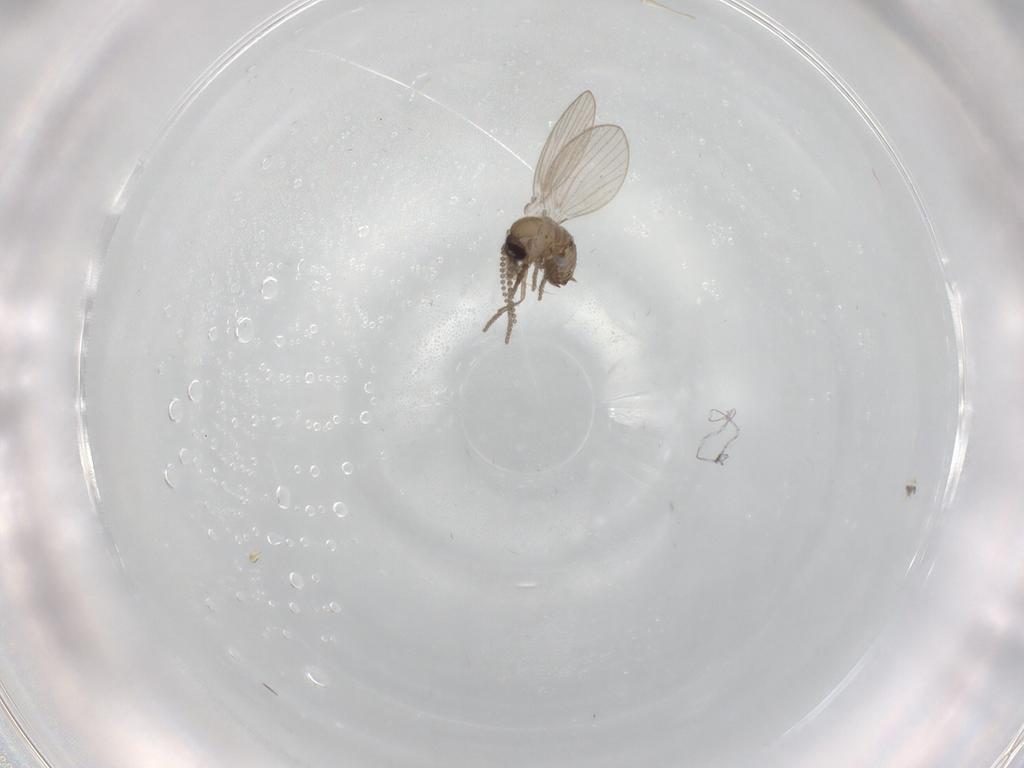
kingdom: Animalia
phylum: Arthropoda
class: Insecta
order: Diptera
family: Psychodidae
